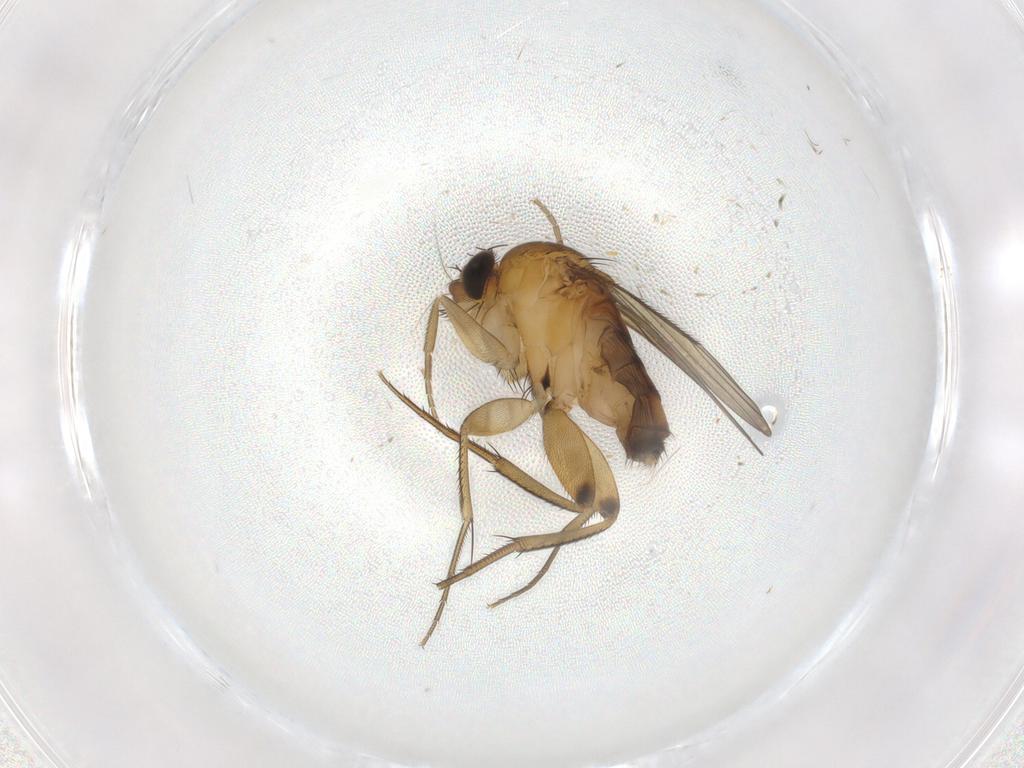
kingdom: Animalia
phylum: Arthropoda
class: Insecta
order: Diptera
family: Phoridae
